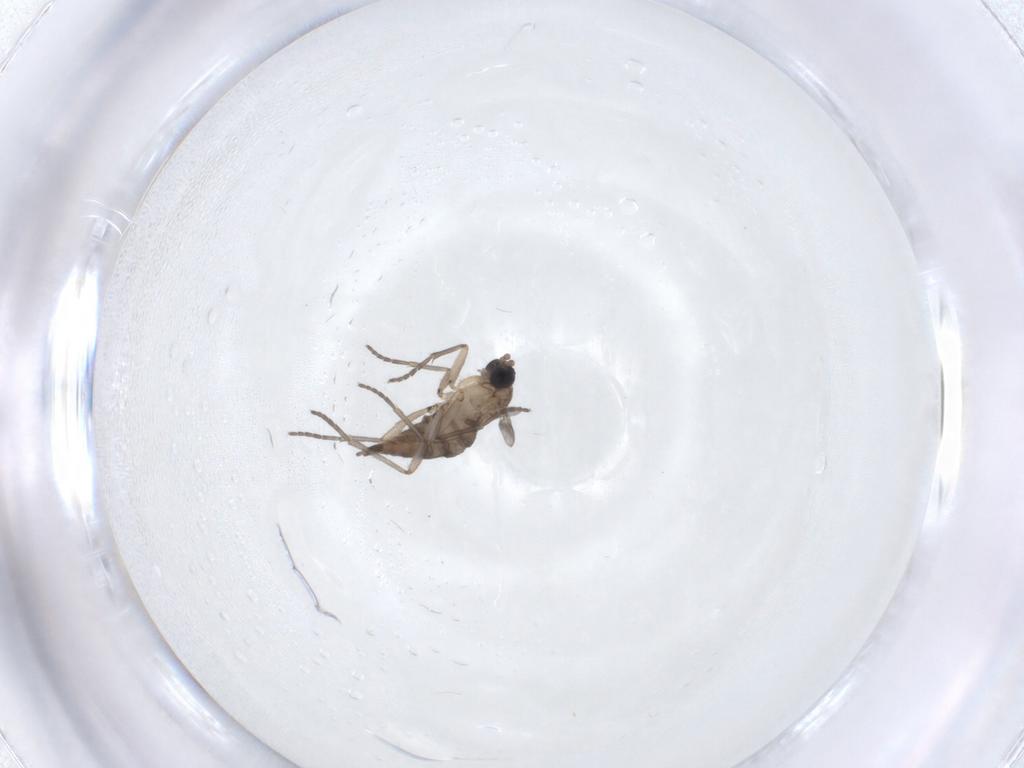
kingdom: Animalia
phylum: Arthropoda
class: Insecta
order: Diptera
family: Sciaridae
